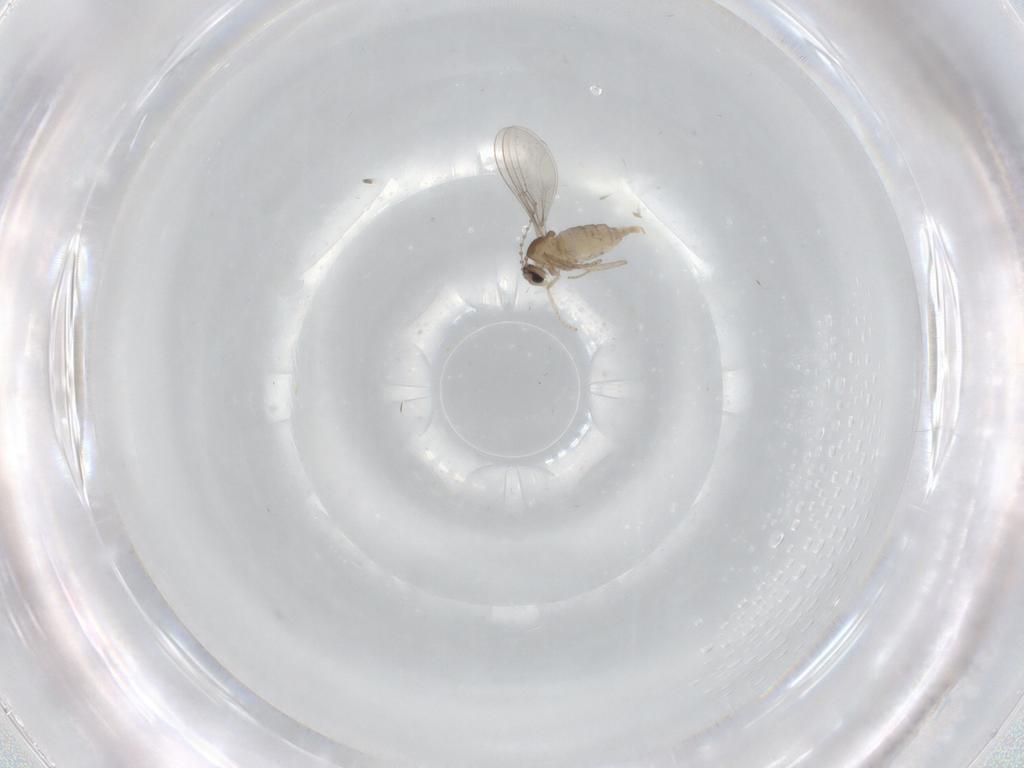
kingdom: Animalia
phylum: Arthropoda
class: Insecta
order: Diptera
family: Cecidomyiidae
